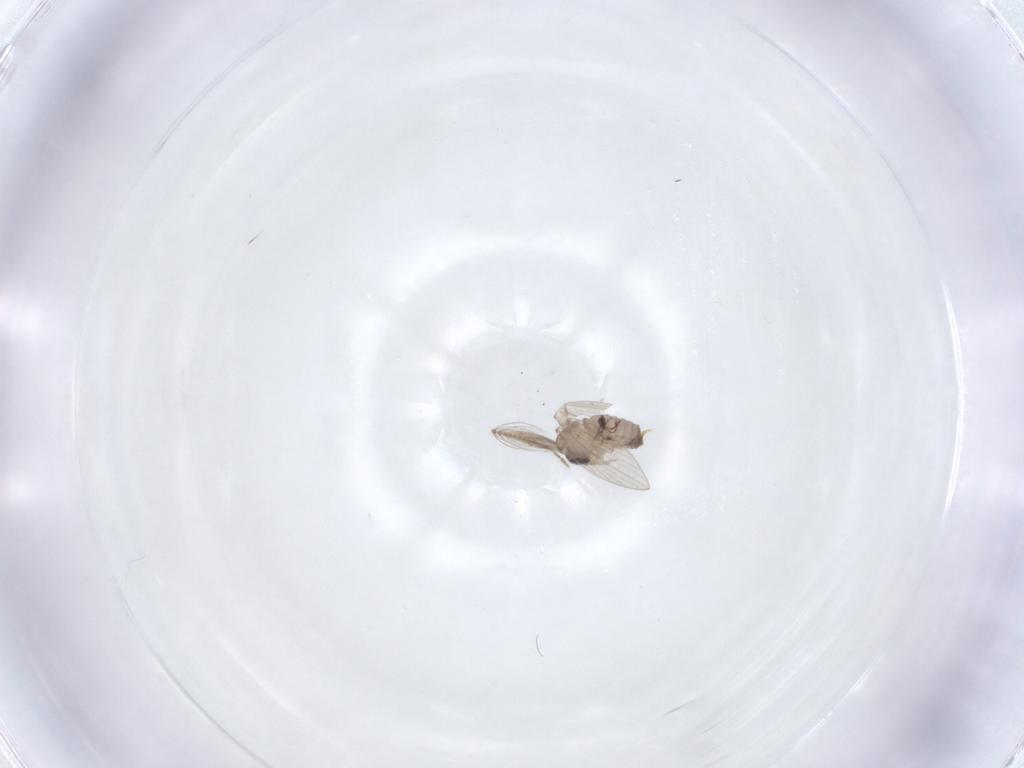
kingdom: Animalia
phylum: Arthropoda
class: Insecta
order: Diptera
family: Psychodidae
